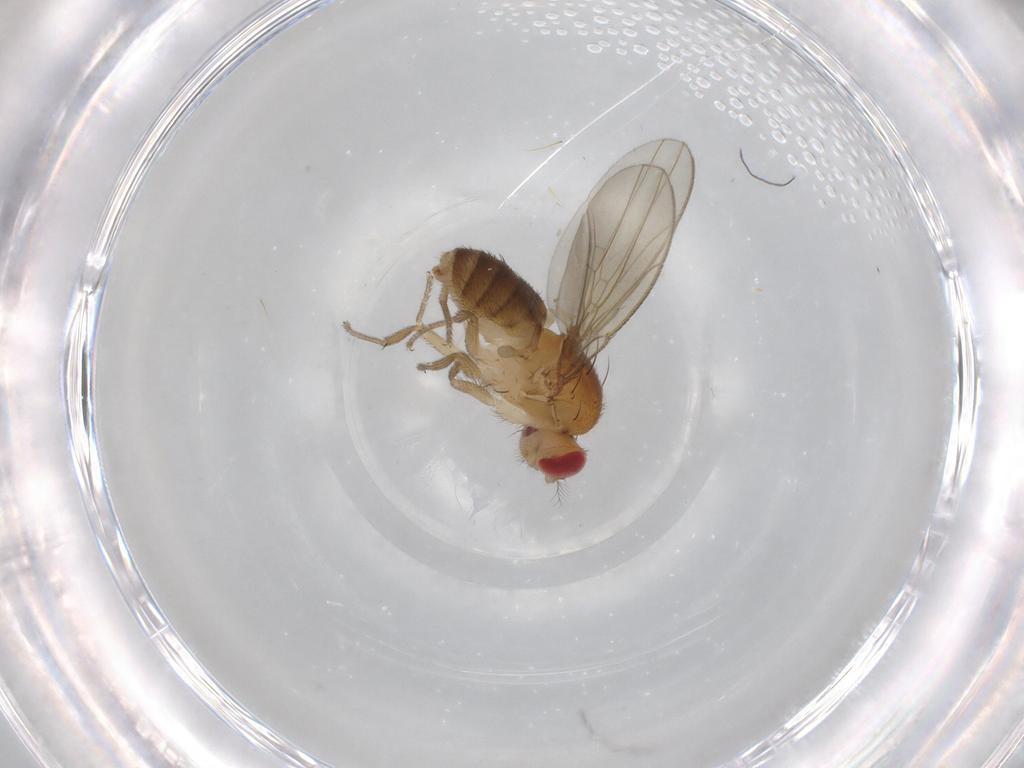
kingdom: Animalia
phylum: Arthropoda
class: Insecta
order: Diptera
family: Drosophilidae
